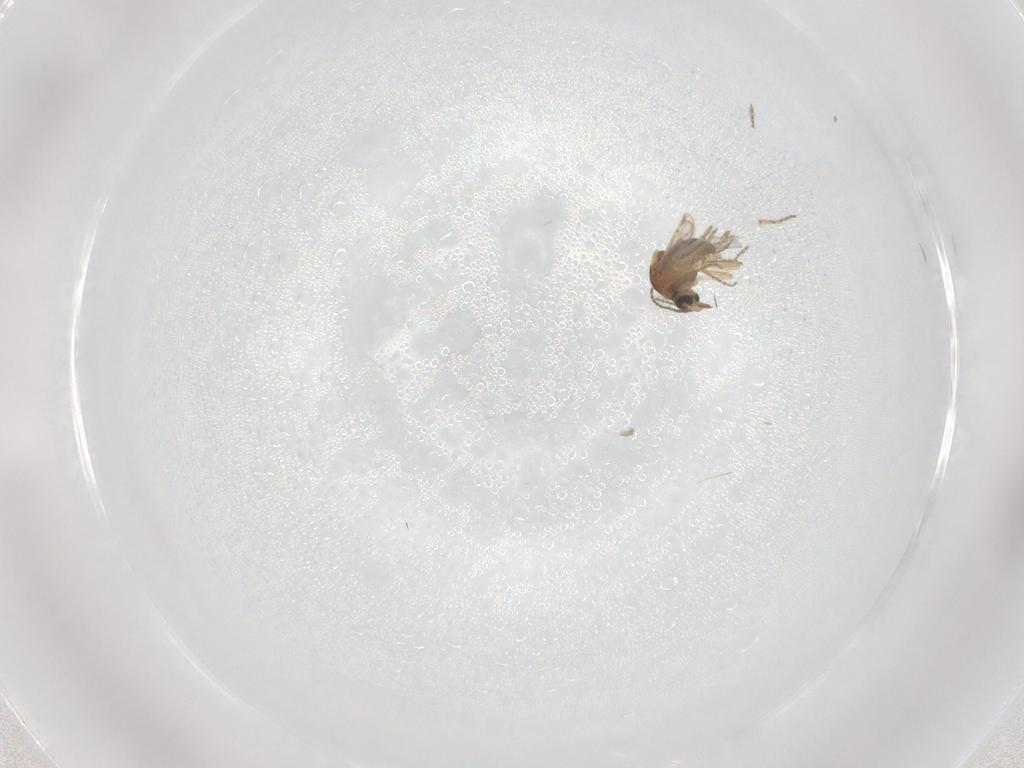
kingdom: Animalia
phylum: Arthropoda
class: Insecta
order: Diptera
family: Ceratopogonidae
